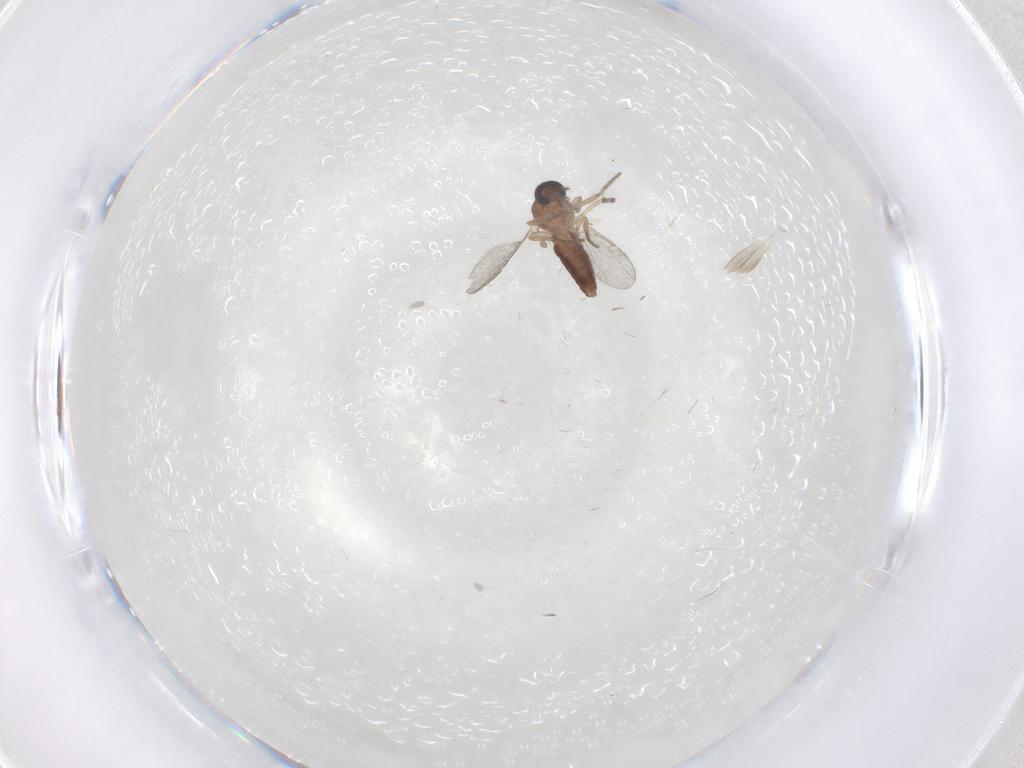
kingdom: Animalia
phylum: Arthropoda
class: Insecta
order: Diptera
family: Ceratopogonidae
